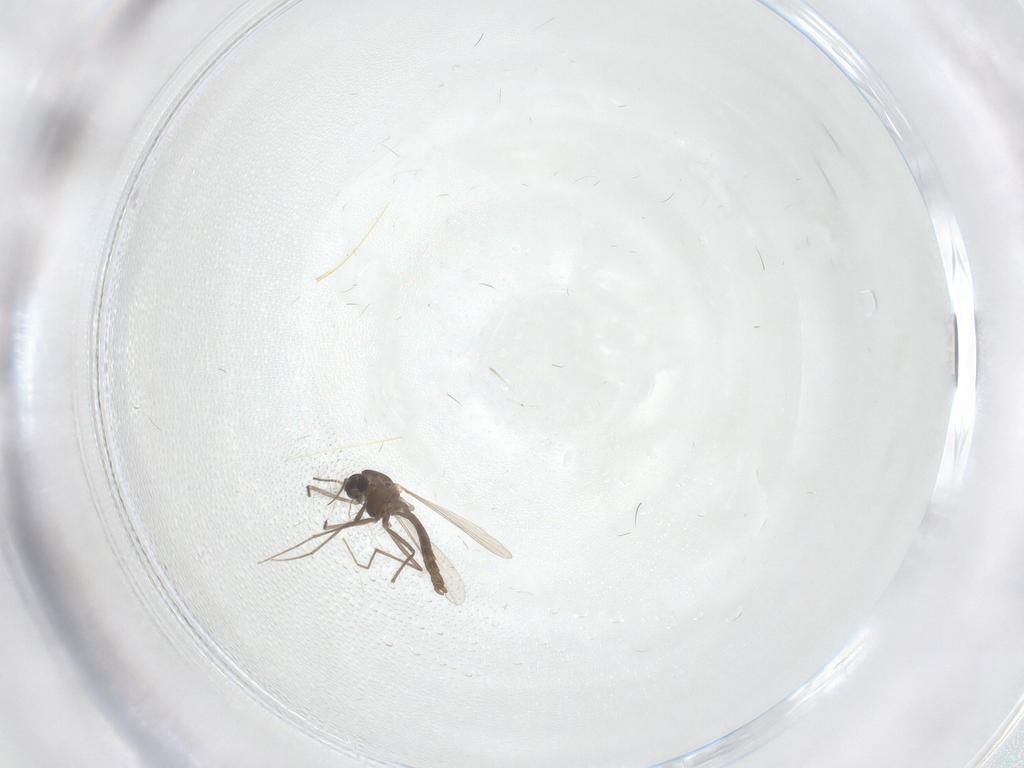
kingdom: Animalia
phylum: Arthropoda
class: Insecta
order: Diptera
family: Chironomidae
